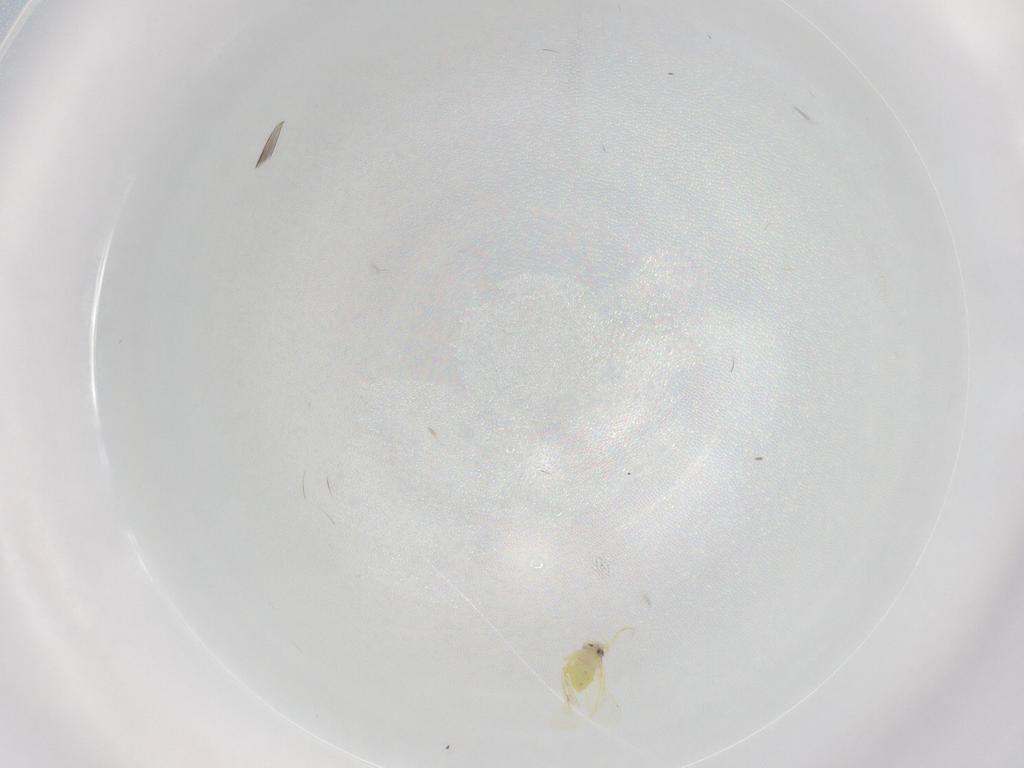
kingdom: Animalia
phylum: Arthropoda
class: Insecta
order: Hemiptera
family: Aleyrodidae
